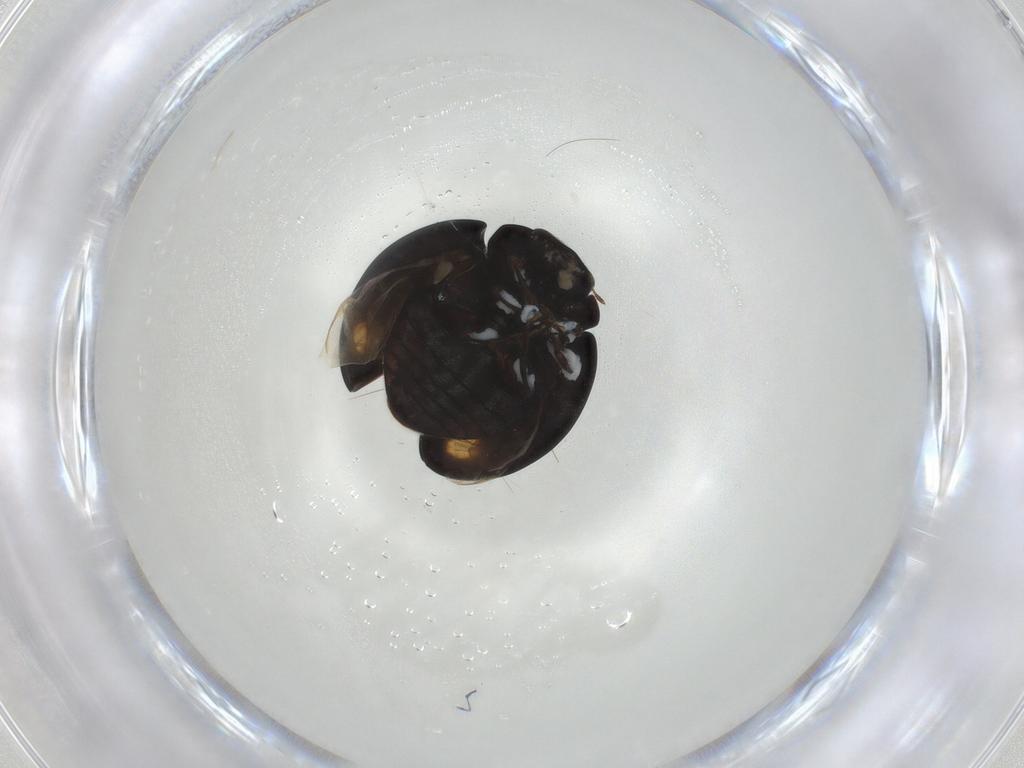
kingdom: Animalia
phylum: Arthropoda
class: Insecta
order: Coleoptera
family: Coccinellidae
